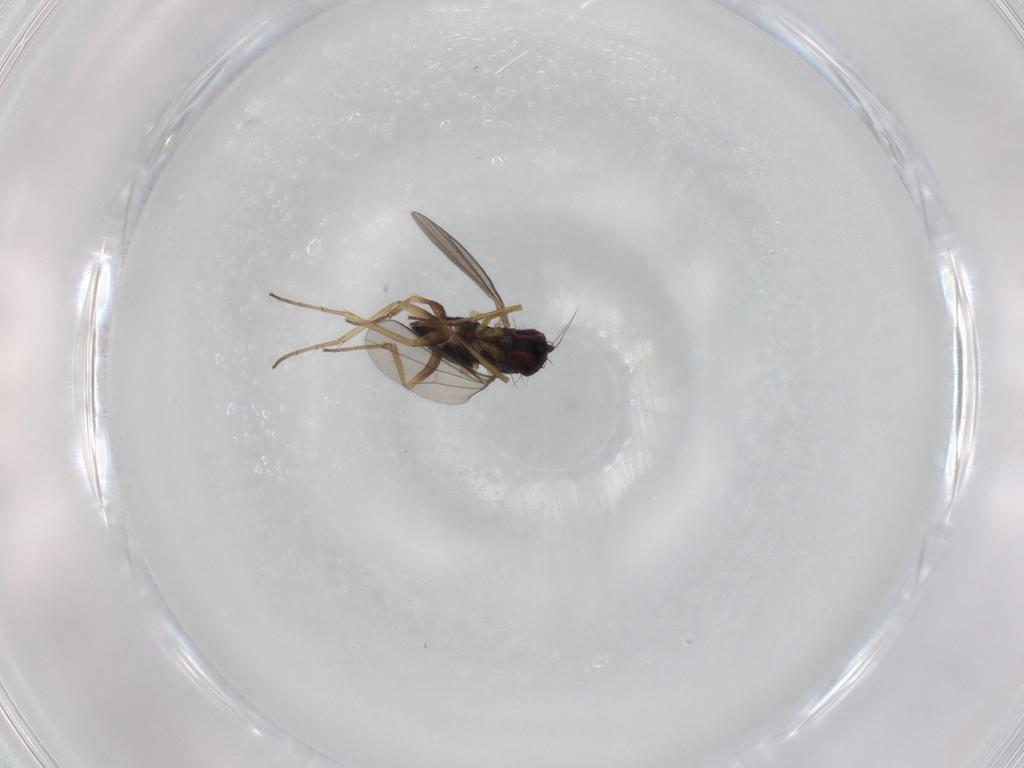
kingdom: Animalia
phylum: Arthropoda
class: Insecta
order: Diptera
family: Dolichopodidae
